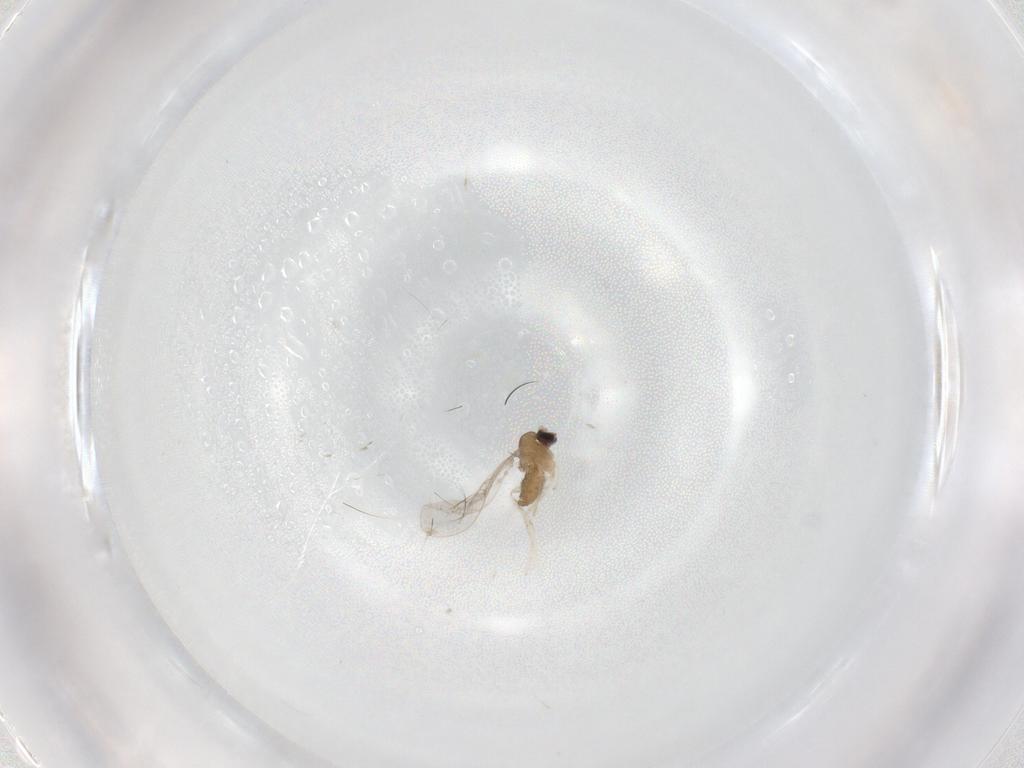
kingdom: Animalia
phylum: Arthropoda
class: Insecta
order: Diptera
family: Cecidomyiidae
